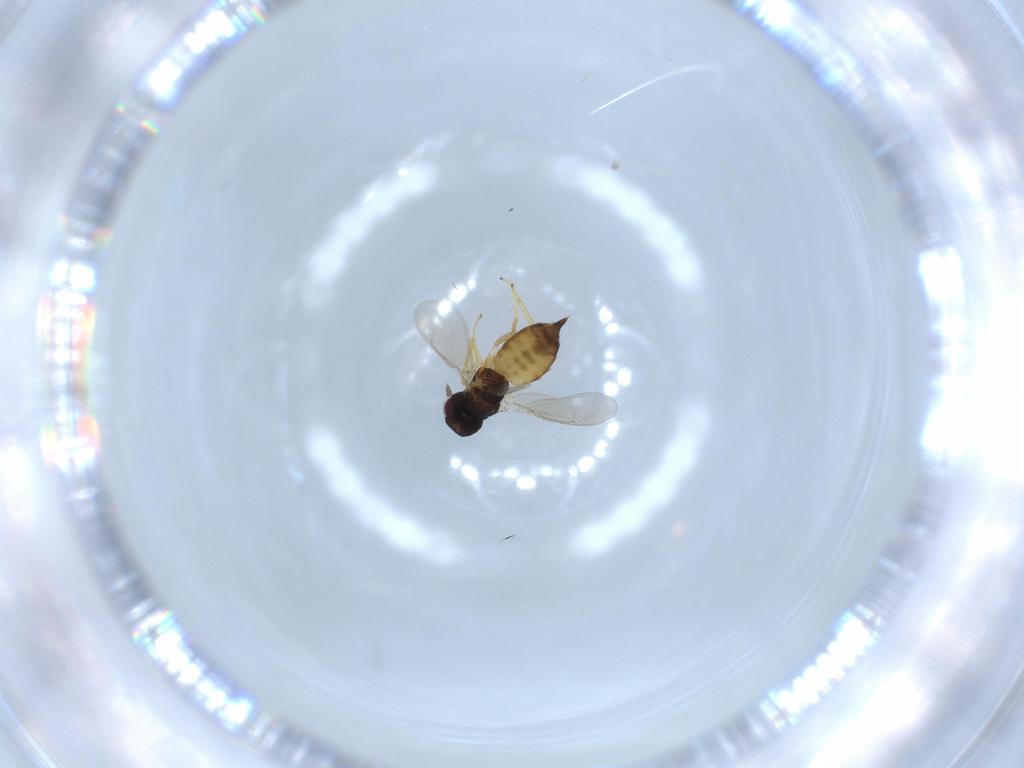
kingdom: Animalia
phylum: Arthropoda
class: Insecta
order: Hymenoptera
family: Eulophidae
